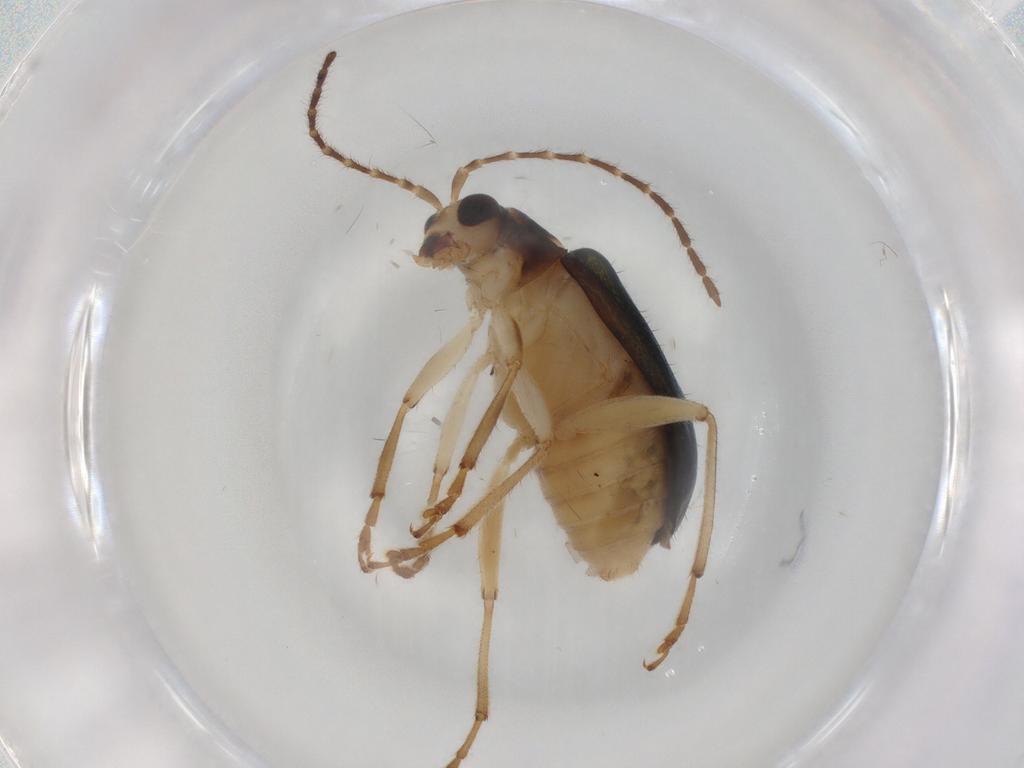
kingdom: Animalia
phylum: Arthropoda
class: Insecta
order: Coleoptera
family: Chrysomelidae
